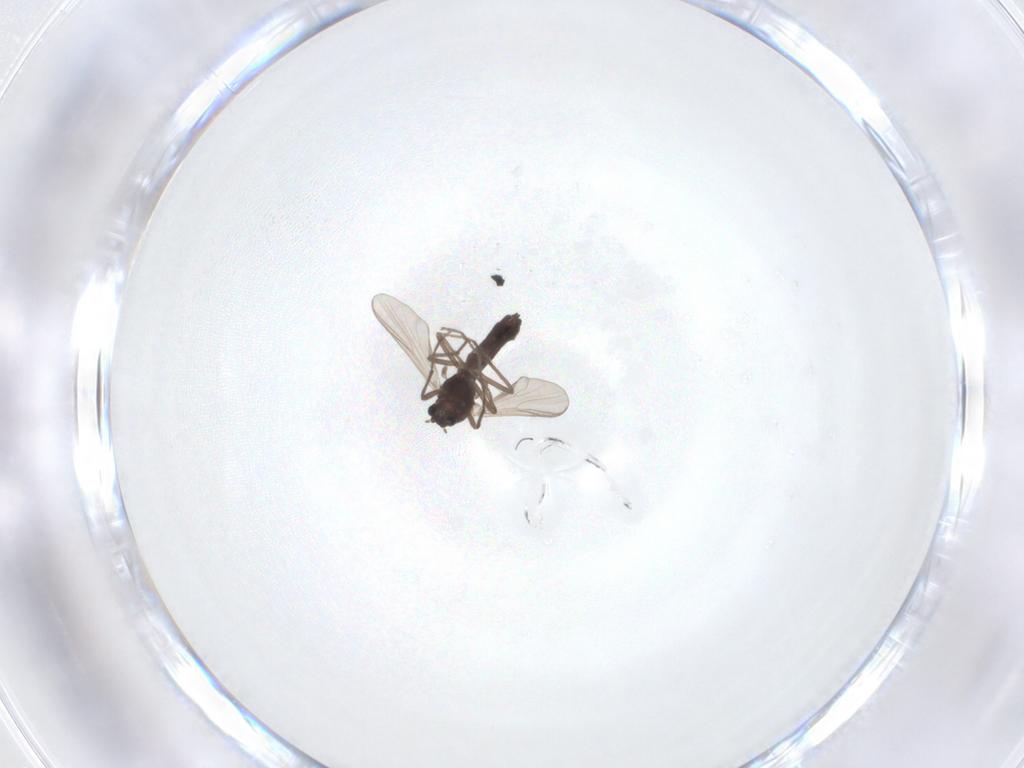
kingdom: Animalia
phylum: Arthropoda
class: Insecta
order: Diptera
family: Chironomidae
